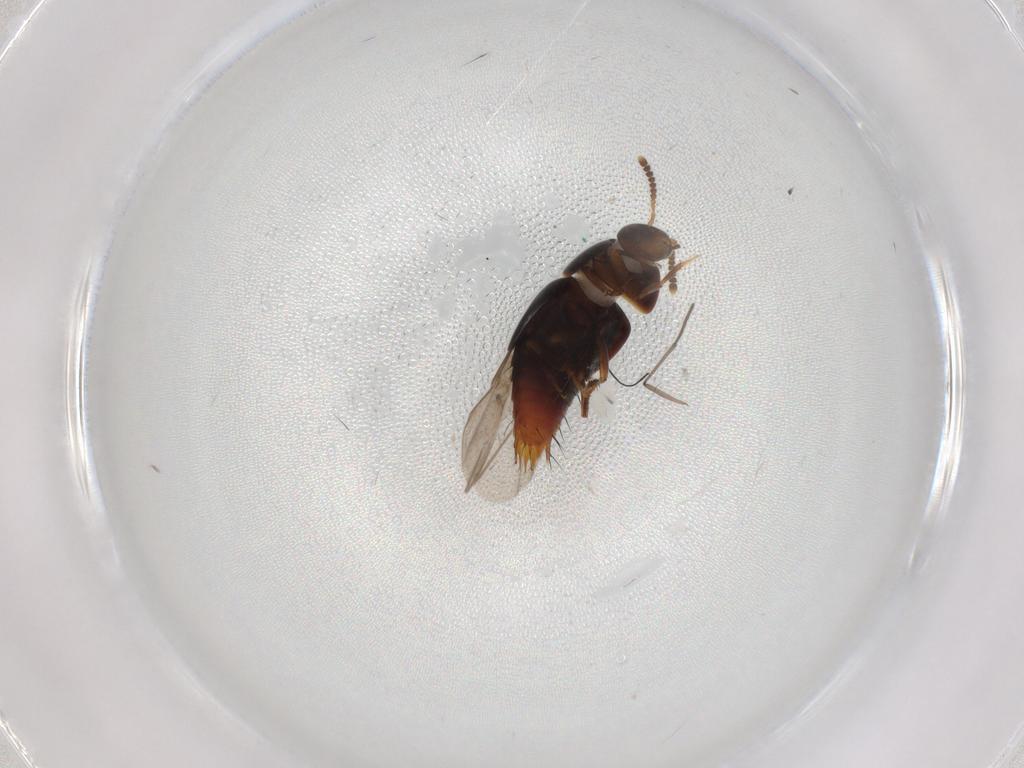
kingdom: Animalia
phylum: Arthropoda
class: Insecta
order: Coleoptera
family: Staphylinidae
